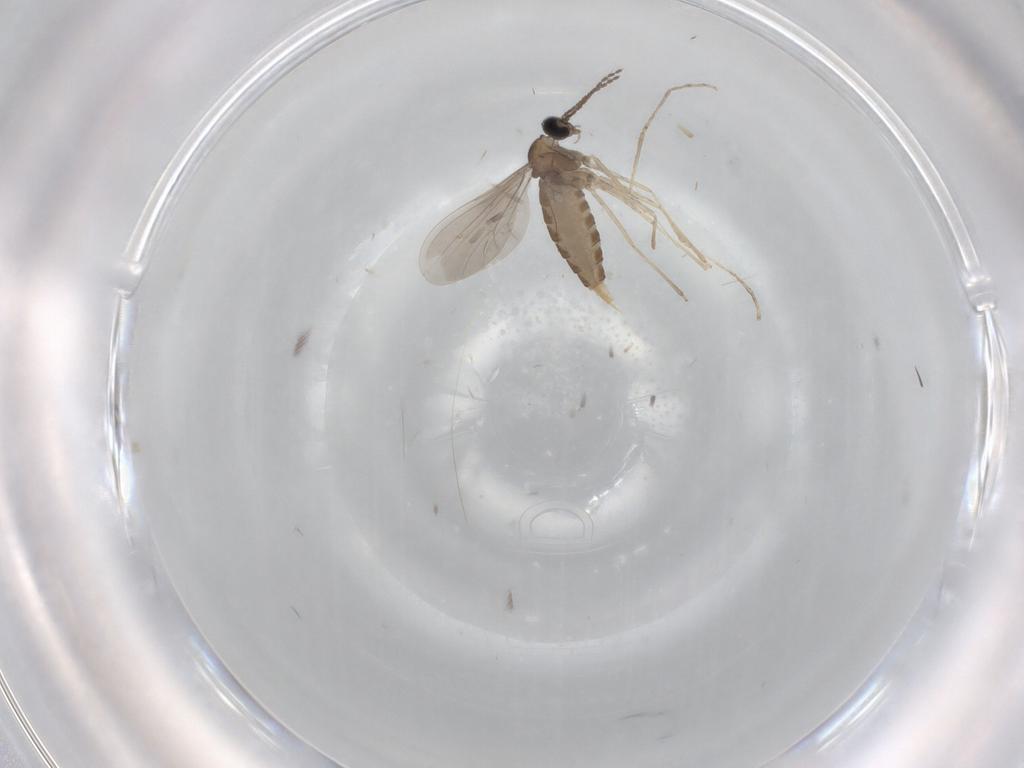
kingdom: Animalia
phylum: Arthropoda
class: Insecta
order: Diptera
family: Cecidomyiidae
